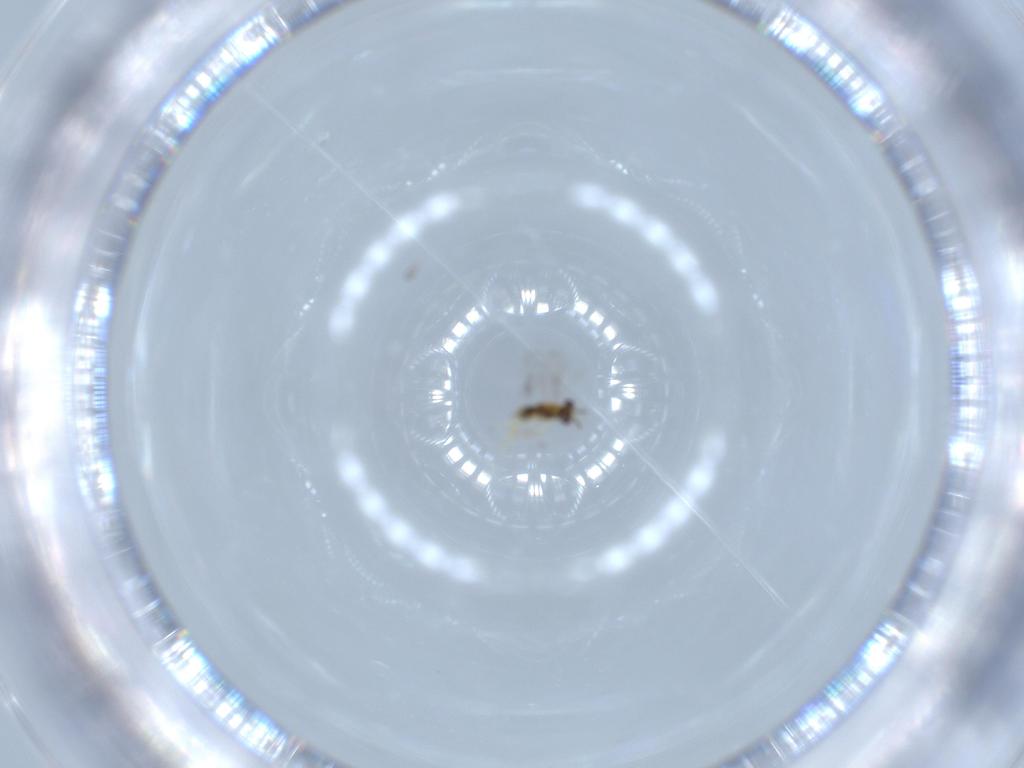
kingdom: Animalia
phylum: Arthropoda
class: Insecta
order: Hymenoptera
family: Aphelinidae
